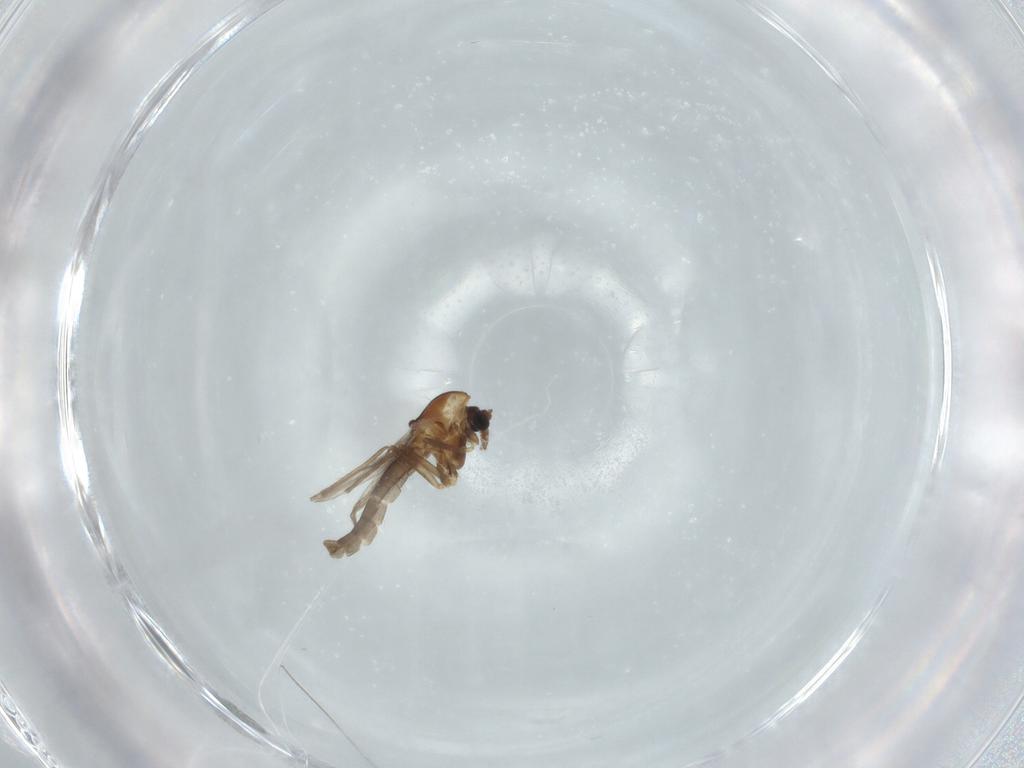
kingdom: Animalia
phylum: Arthropoda
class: Insecta
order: Diptera
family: Chironomidae
